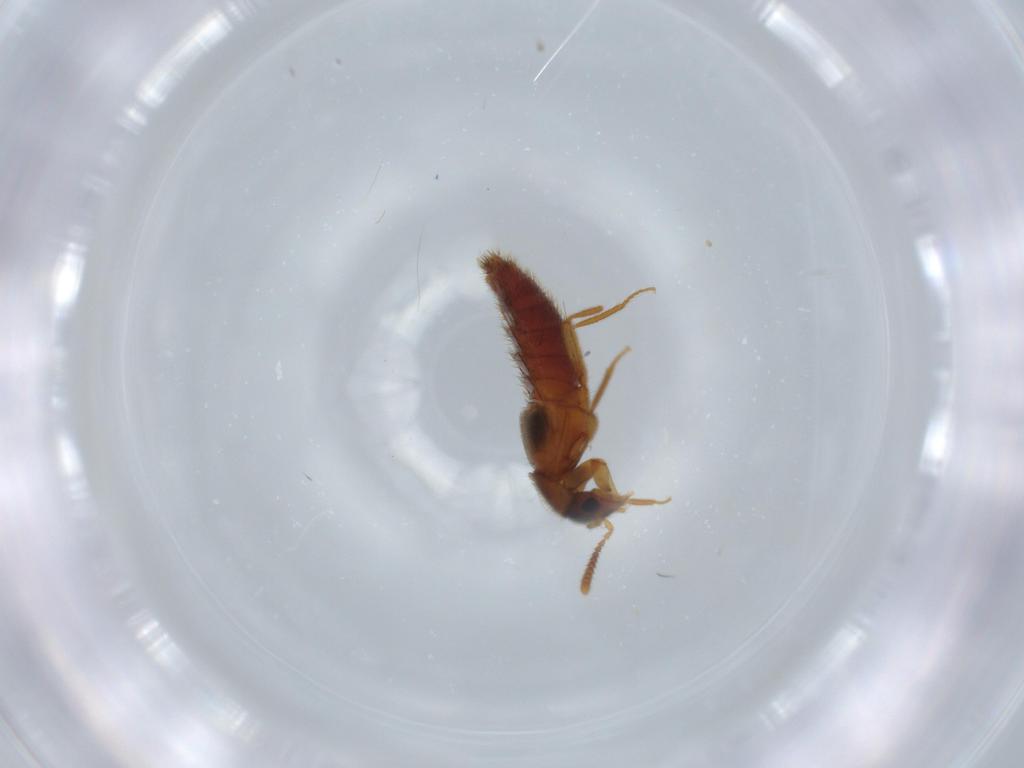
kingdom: Animalia
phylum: Arthropoda
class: Insecta
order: Coleoptera
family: Chrysomelidae
